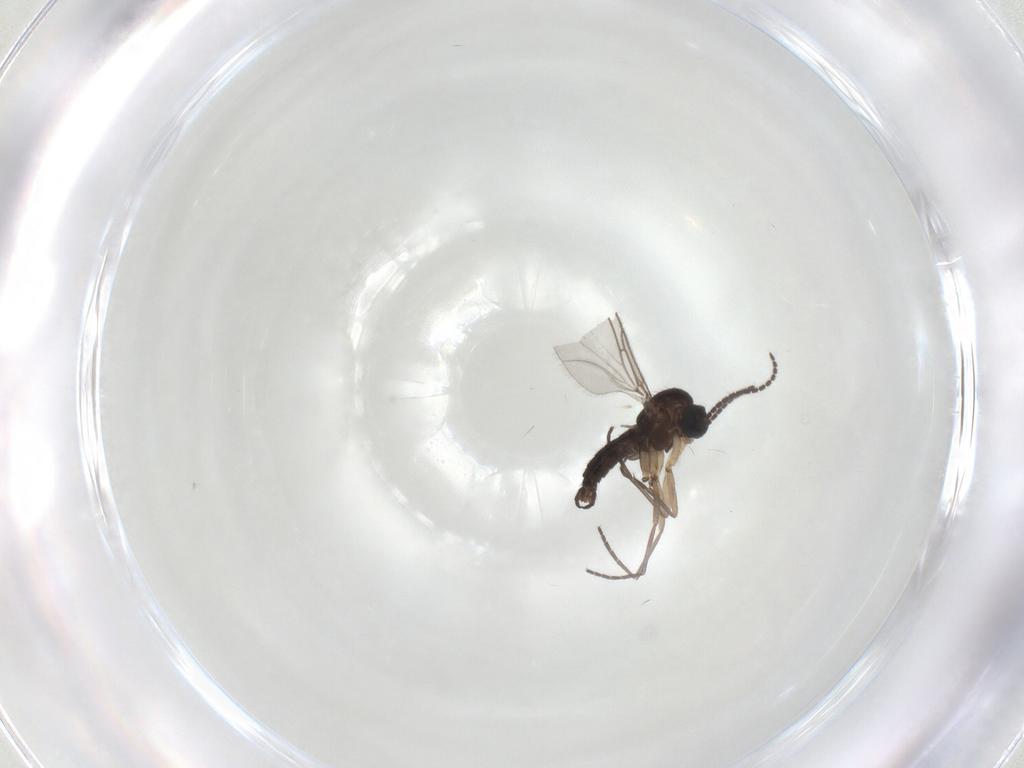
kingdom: Animalia
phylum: Arthropoda
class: Insecta
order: Diptera
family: Sciaridae
